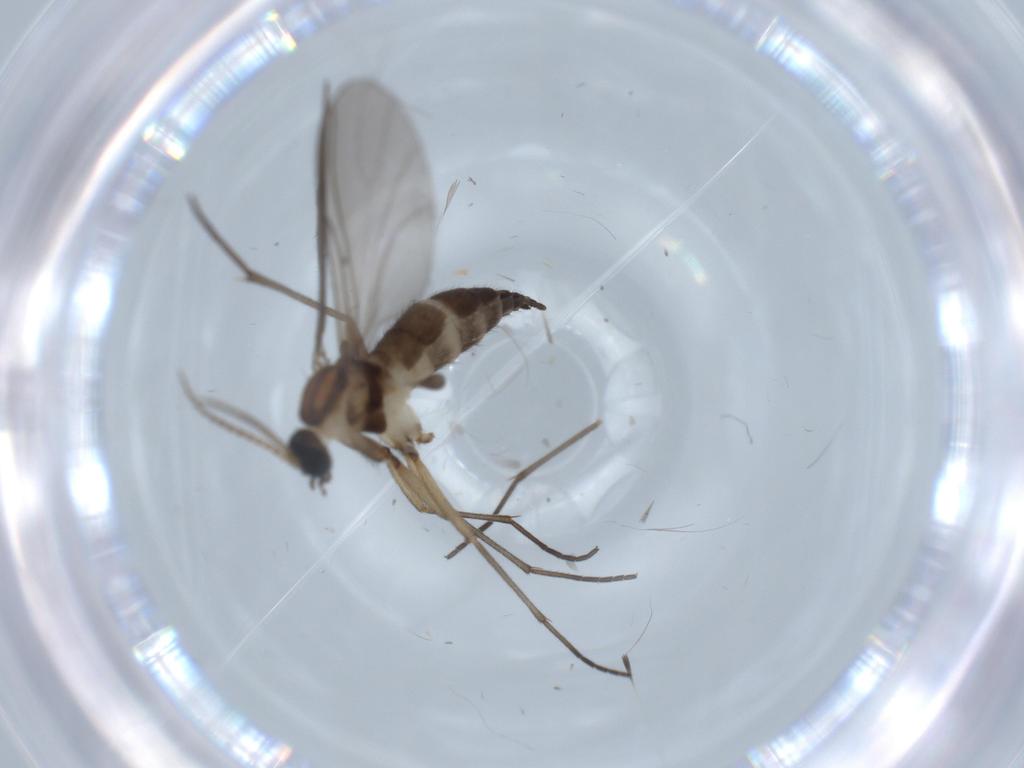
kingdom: Animalia
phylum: Arthropoda
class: Insecta
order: Diptera
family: Sciaridae
